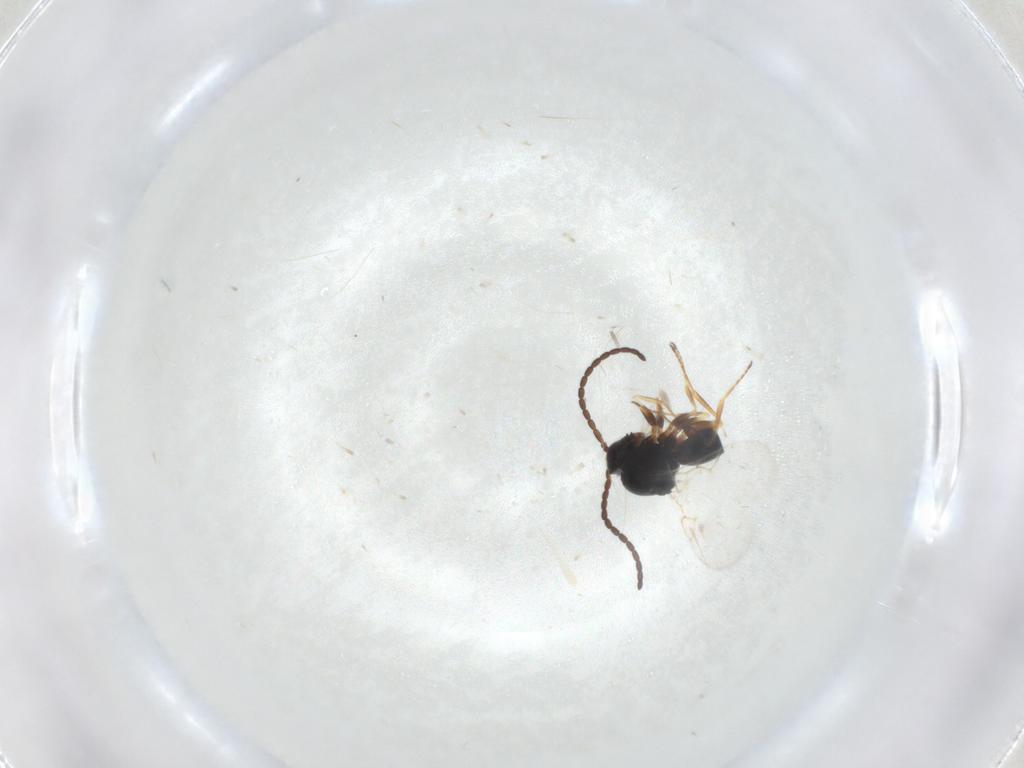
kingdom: Animalia
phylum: Arthropoda
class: Insecta
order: Hymenoptera
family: Figitidae
